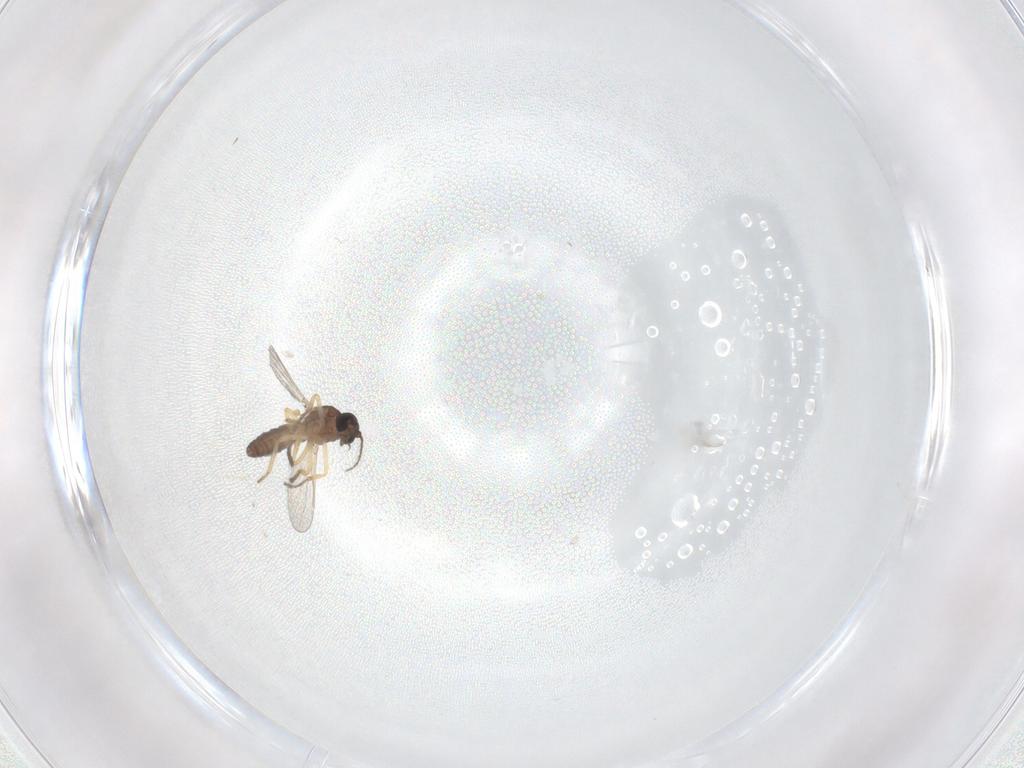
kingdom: Animalia
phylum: Arthropoda
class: Insecta
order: Diptera
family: Ceratopogonidae
